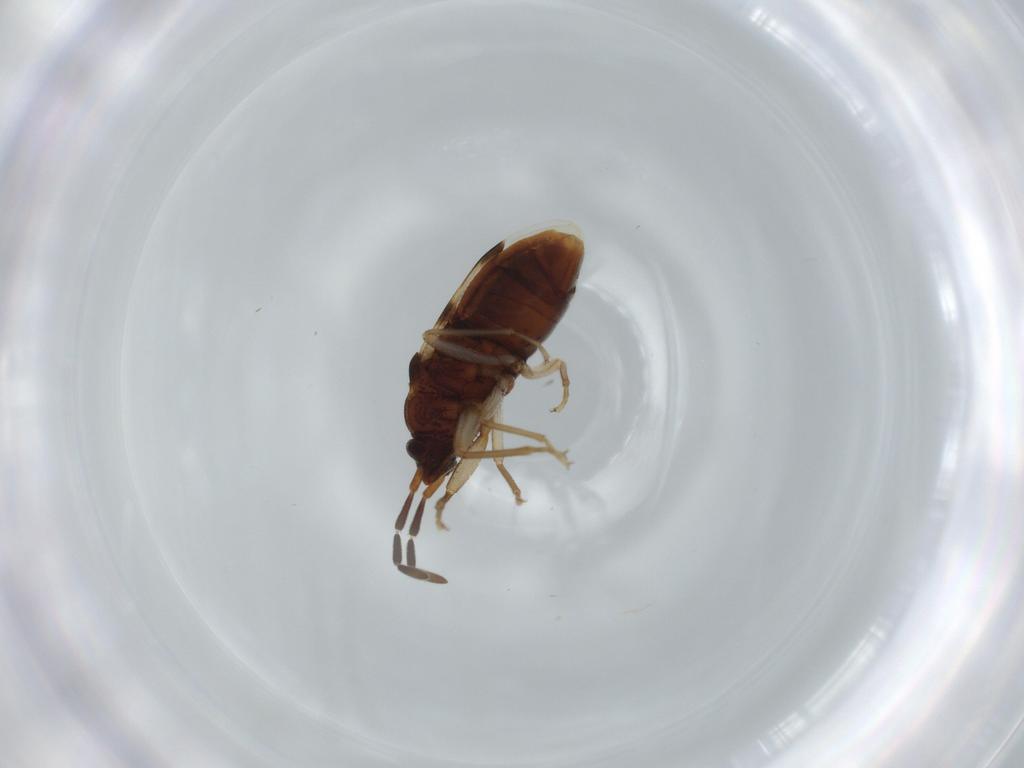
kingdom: Animalia
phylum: Arthropoda
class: Insecta
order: Hemiptera
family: Rhyparochromidae
